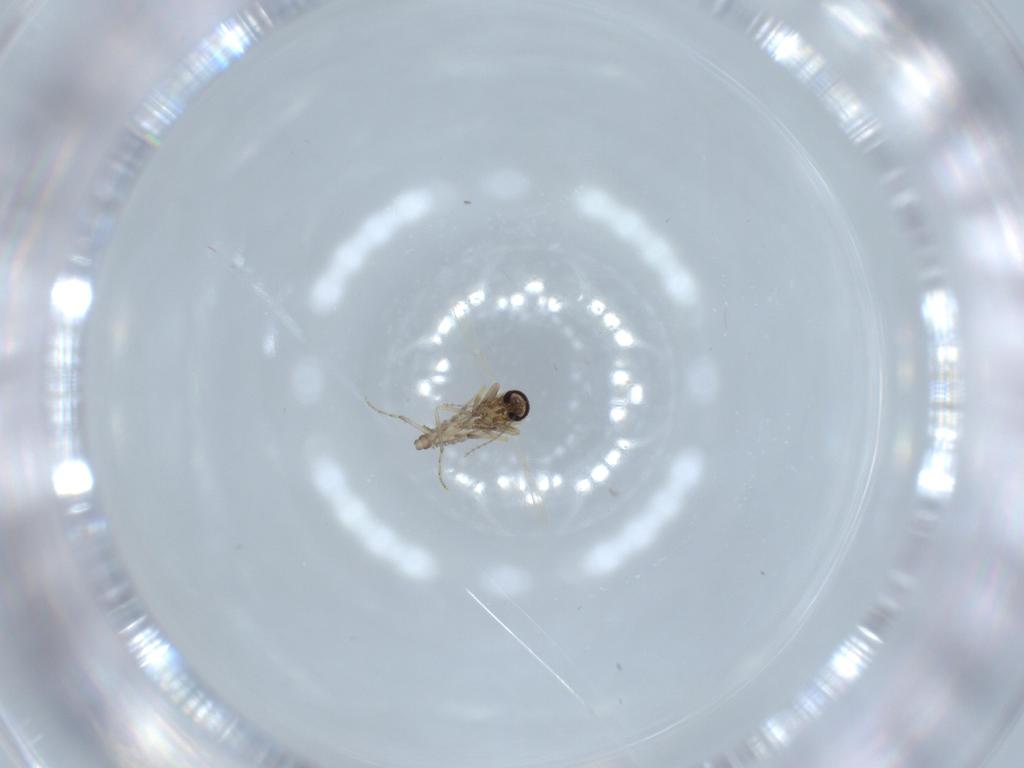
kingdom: Animalia
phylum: Arthropoda
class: Insecta
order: Diptera
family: Ceratopogonidae
